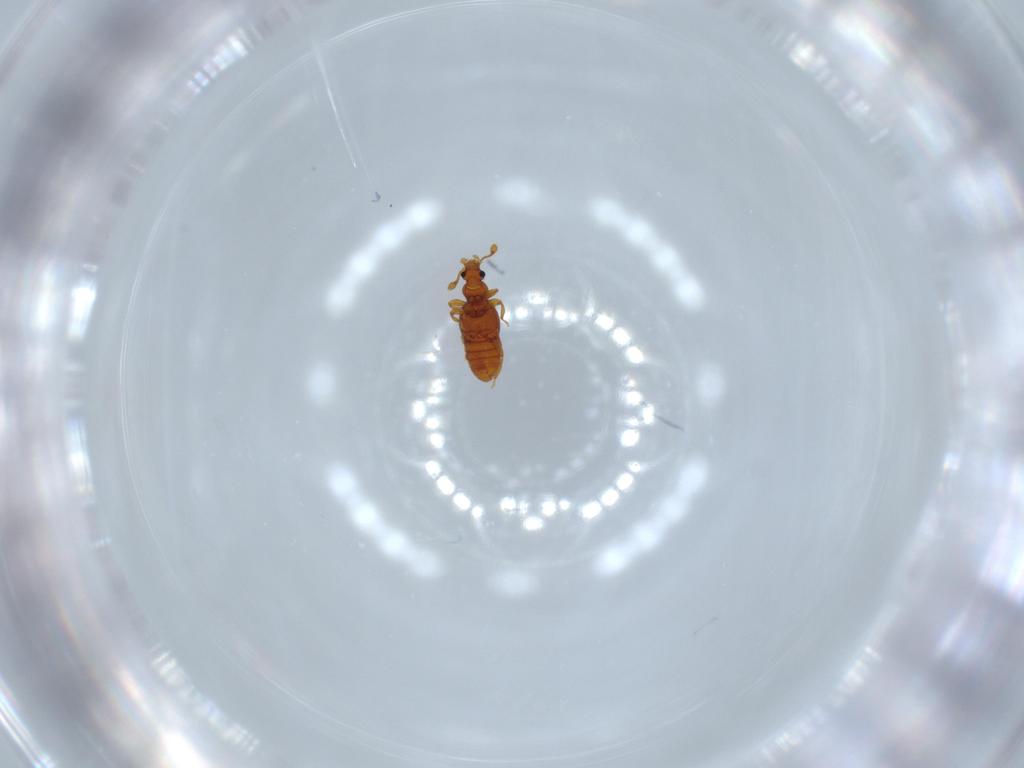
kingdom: Animalia
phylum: Arthropoda
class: Insecta
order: Coleoptera
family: Staphylinidae
